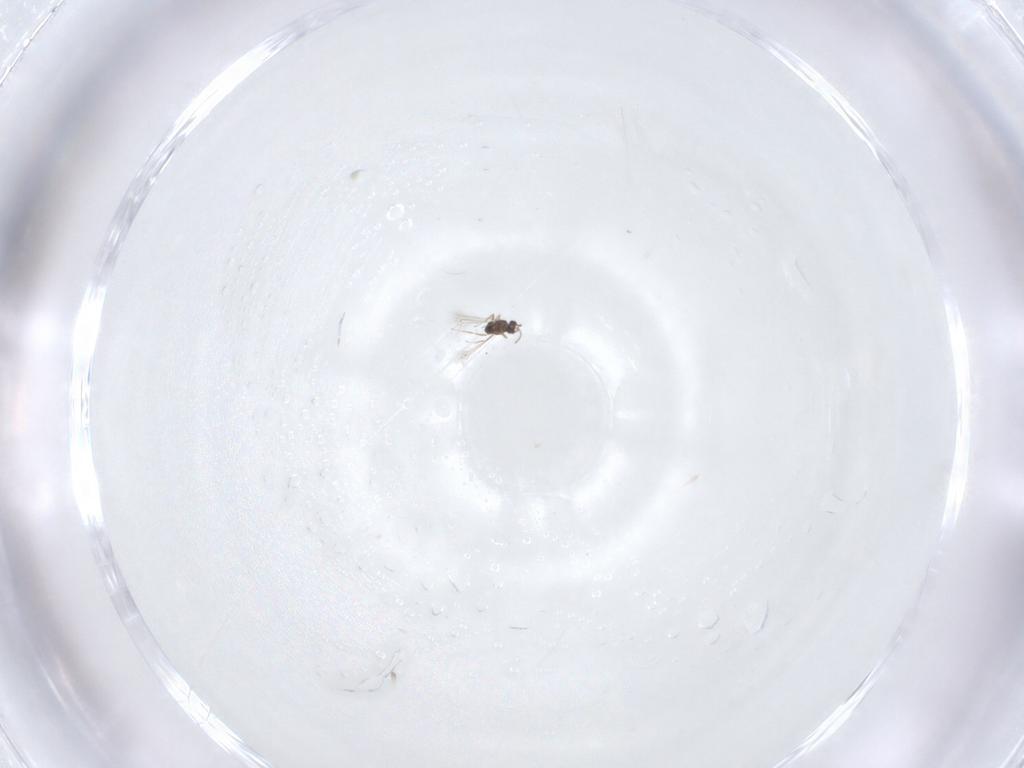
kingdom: Animalia
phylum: Arthropoda
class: Insecta
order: Hymenoptera
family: Mymaridae
